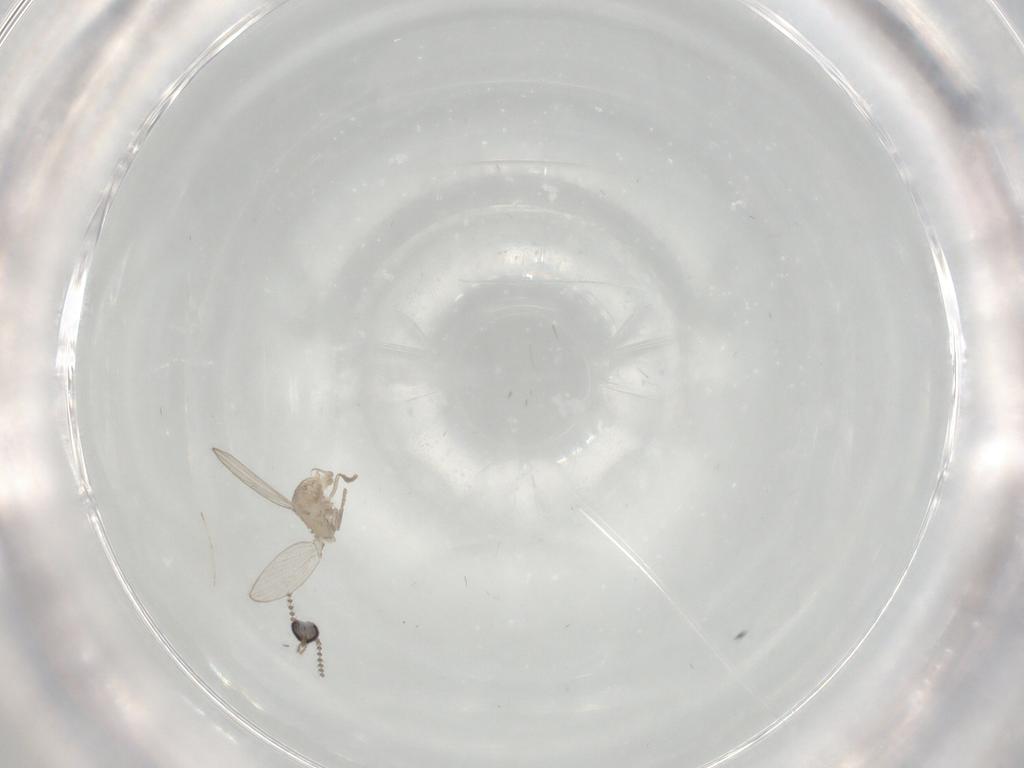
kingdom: Animalia
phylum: Arthropoda
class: Insecta
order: Diptera
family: Psychodidae
